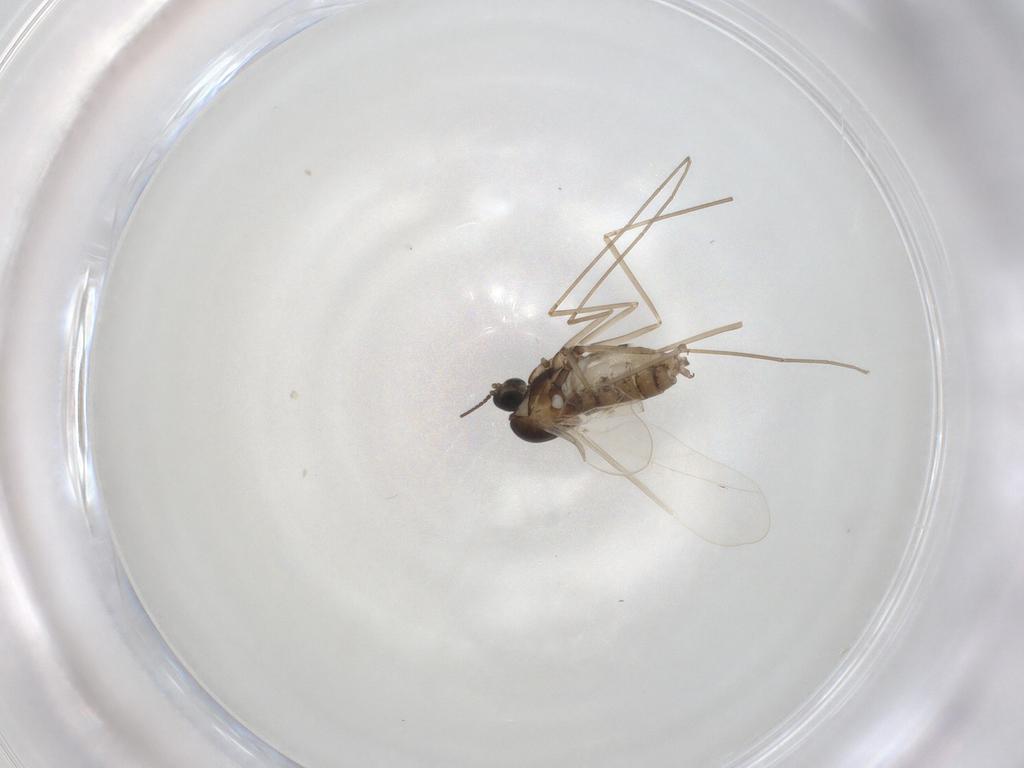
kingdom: Animalia
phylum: Arthropoda
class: Insecta
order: Diptera
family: Cecidomyiidae
